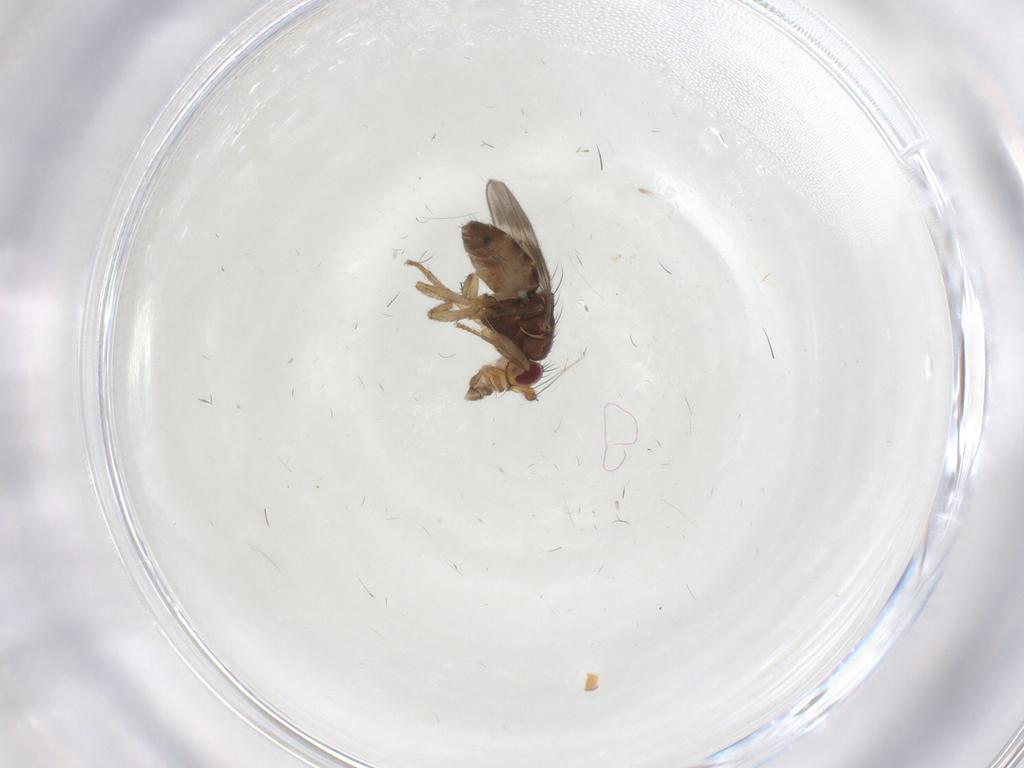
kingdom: Animalia
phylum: Arthropoda
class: Insecta
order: Diptera
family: Sphaeroceridae
